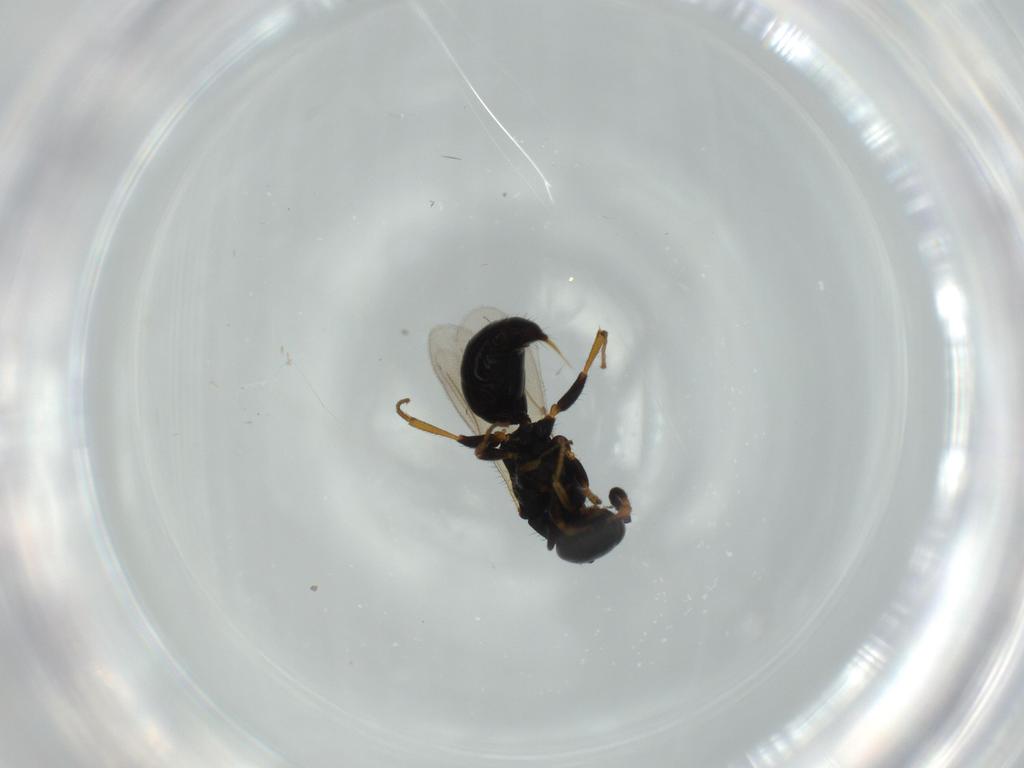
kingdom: Animalia
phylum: Arthropoda
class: Insecta
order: Hymenoptera
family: Bethylidae
